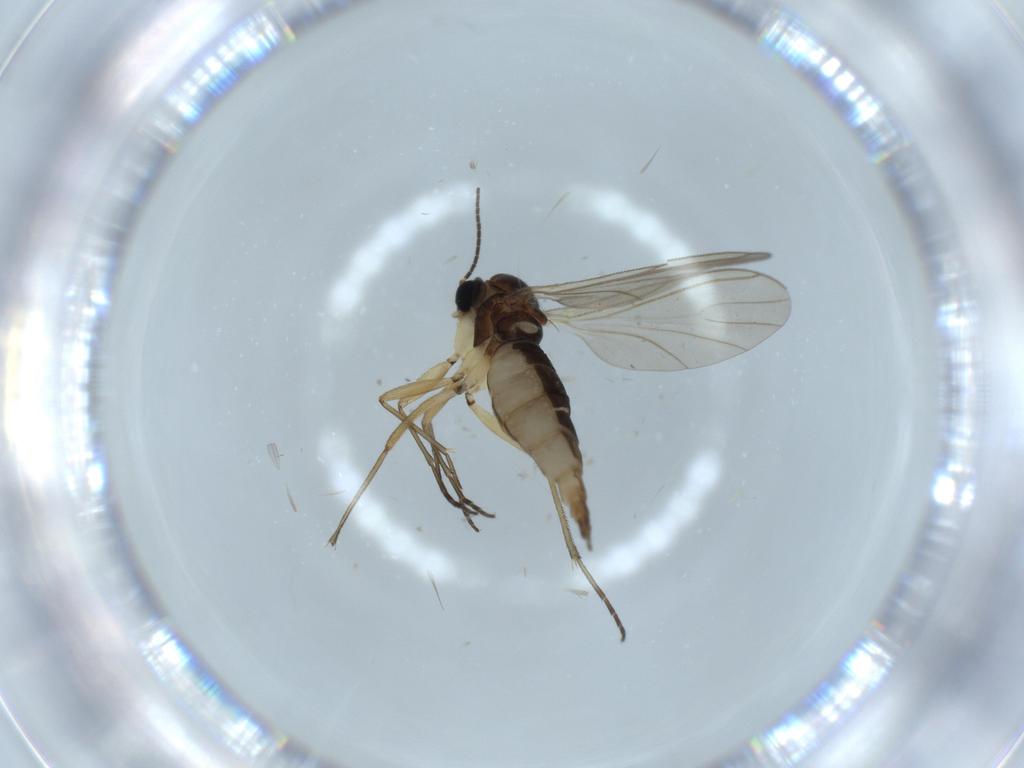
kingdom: Animalia
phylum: Arthropoda
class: Insecta
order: Diptera
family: Sciaridae
